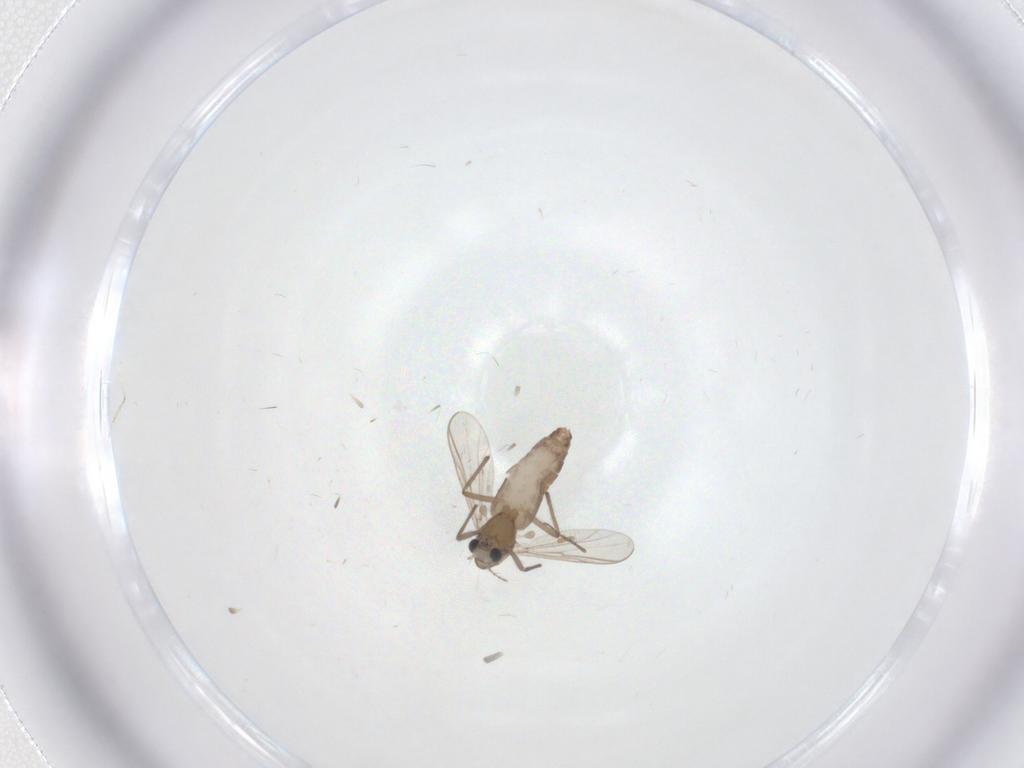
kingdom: Animalia
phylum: Arthropoda
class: Insecta
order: Diptera
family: Chironomidae
